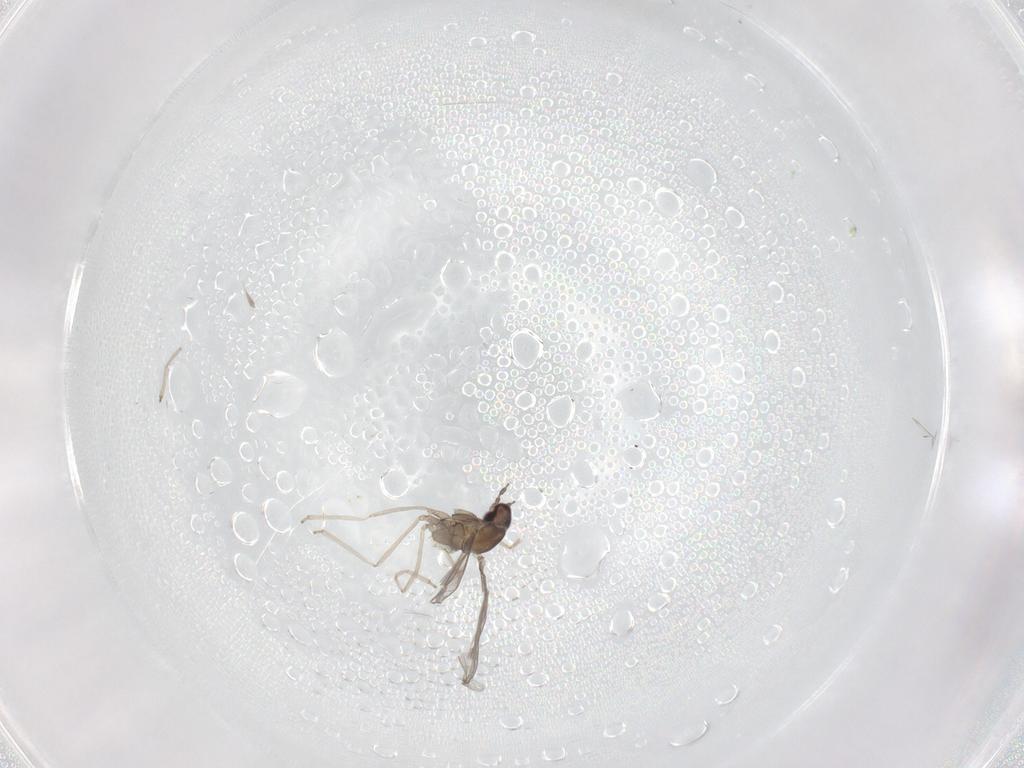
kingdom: Animalia
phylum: Arthropoda
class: Insecta
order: Diptera
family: Cecidomyiidae
